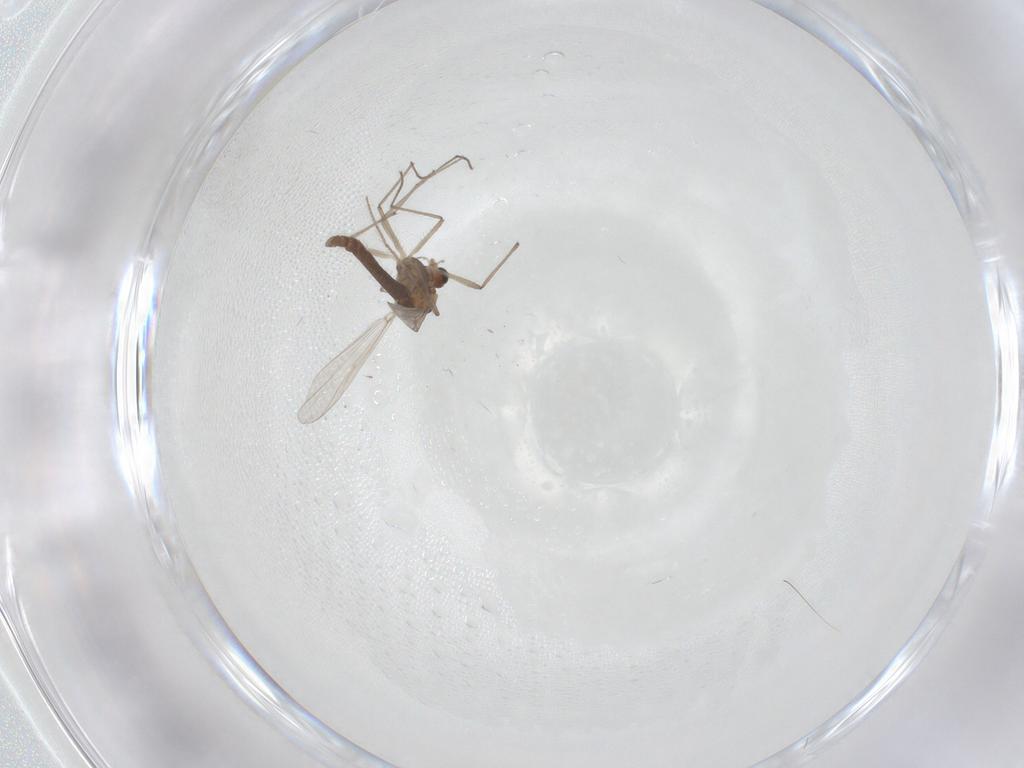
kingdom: Animalia
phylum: Arthropoda
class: Insecta
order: Diptera
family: Chironomidae
